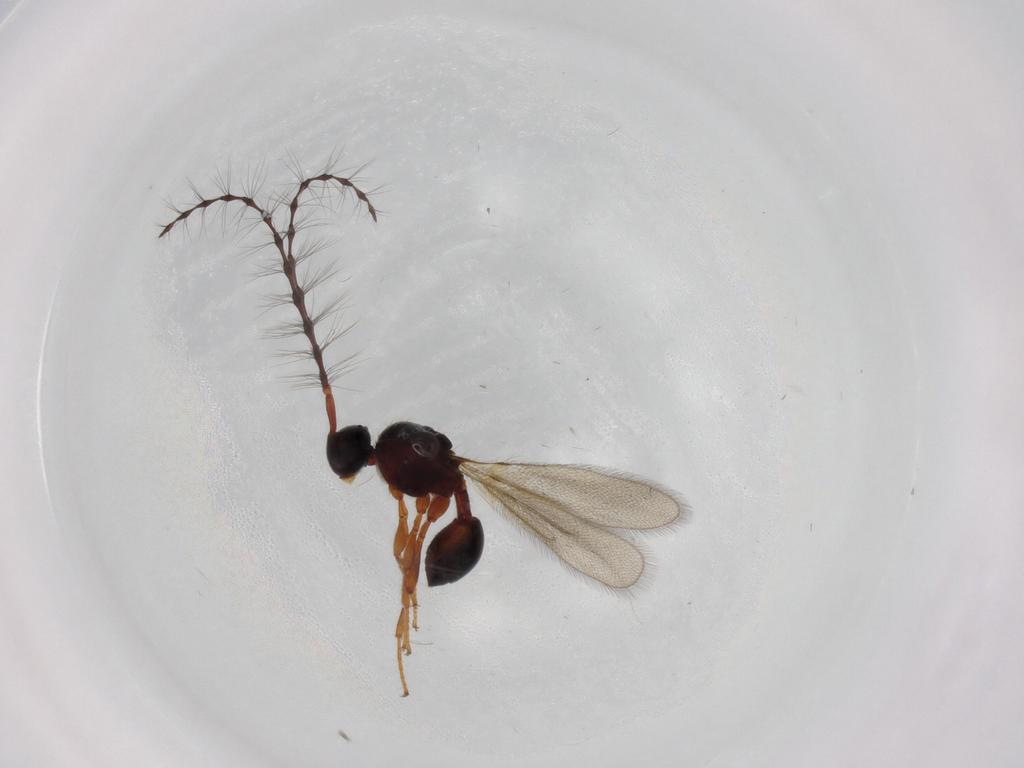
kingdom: Animalia
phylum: Arthropoda
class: Insecta
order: Hymenoptera
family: Diapriidae
